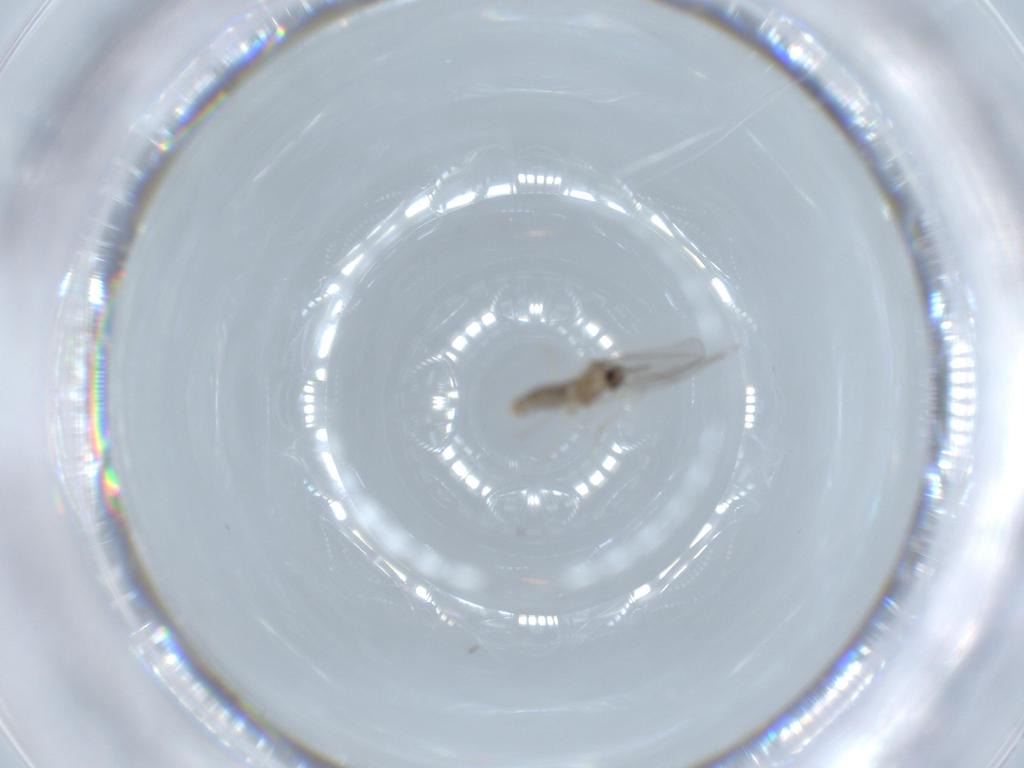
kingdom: Animalia
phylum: Arthropoda
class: Insecta
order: Diptera
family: Cecidomyiidae
